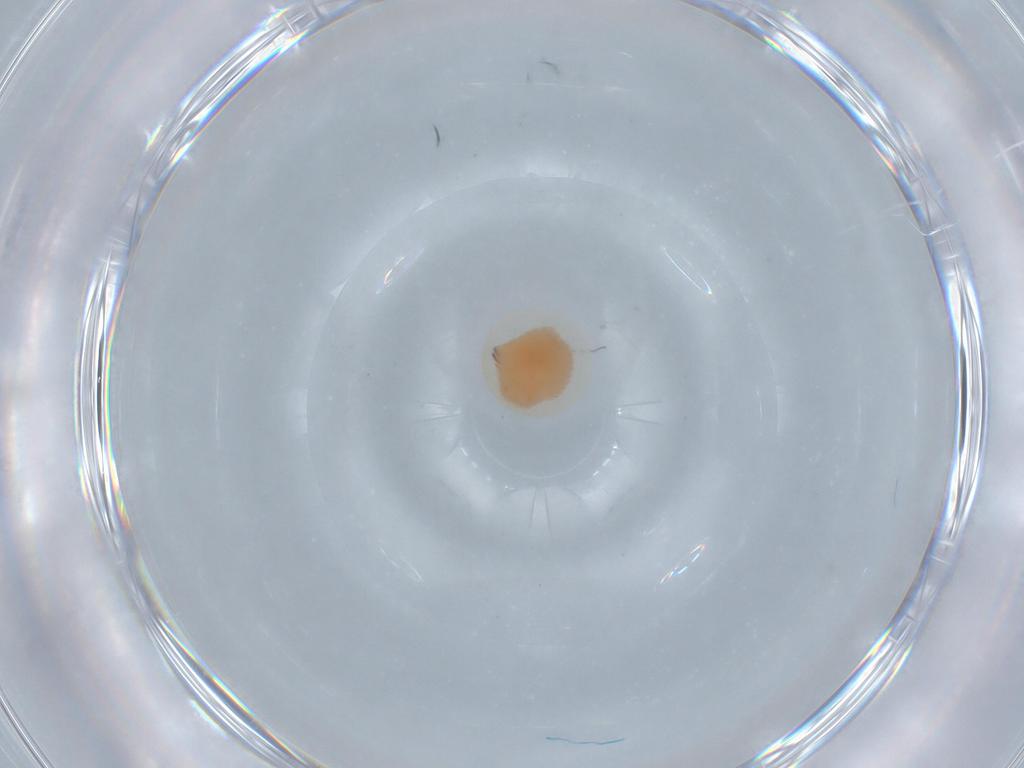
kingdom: Animalia
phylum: Arthropoda
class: Insecta
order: Lepidoptera
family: Erebidae
